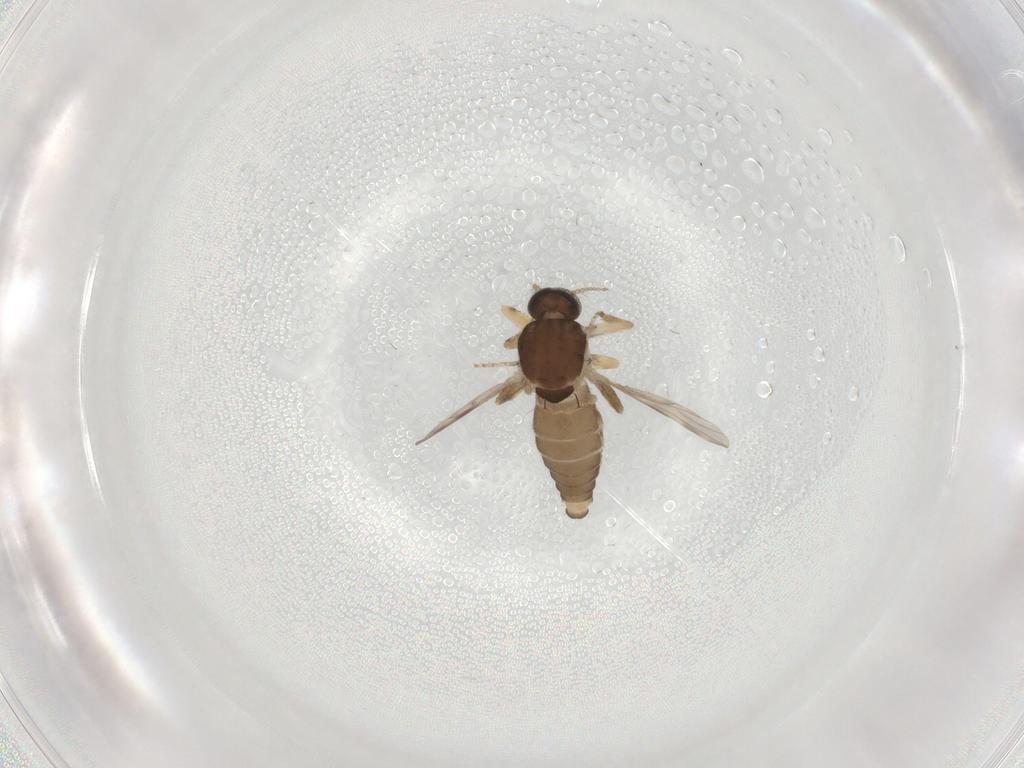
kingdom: Animalia
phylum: Arthropoda
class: Insecta
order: Diptera
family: Ceratopogonidae
